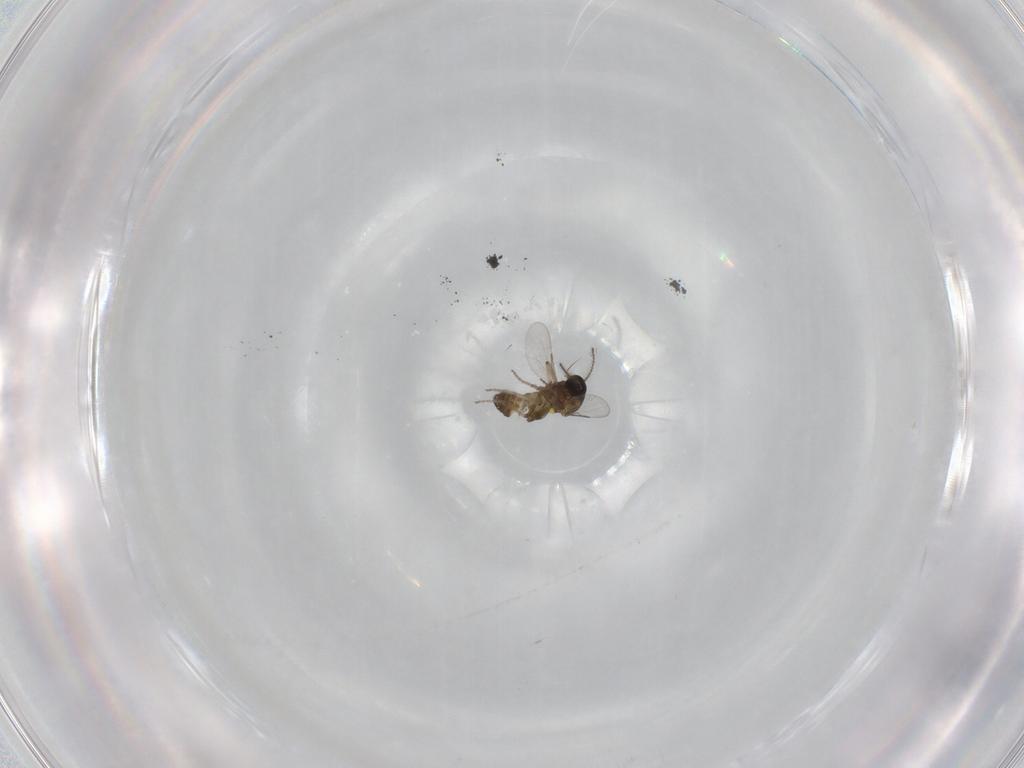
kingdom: Animalia
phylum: Arthropoda
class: Insecta
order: Diptera
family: Ceratopogonidae
